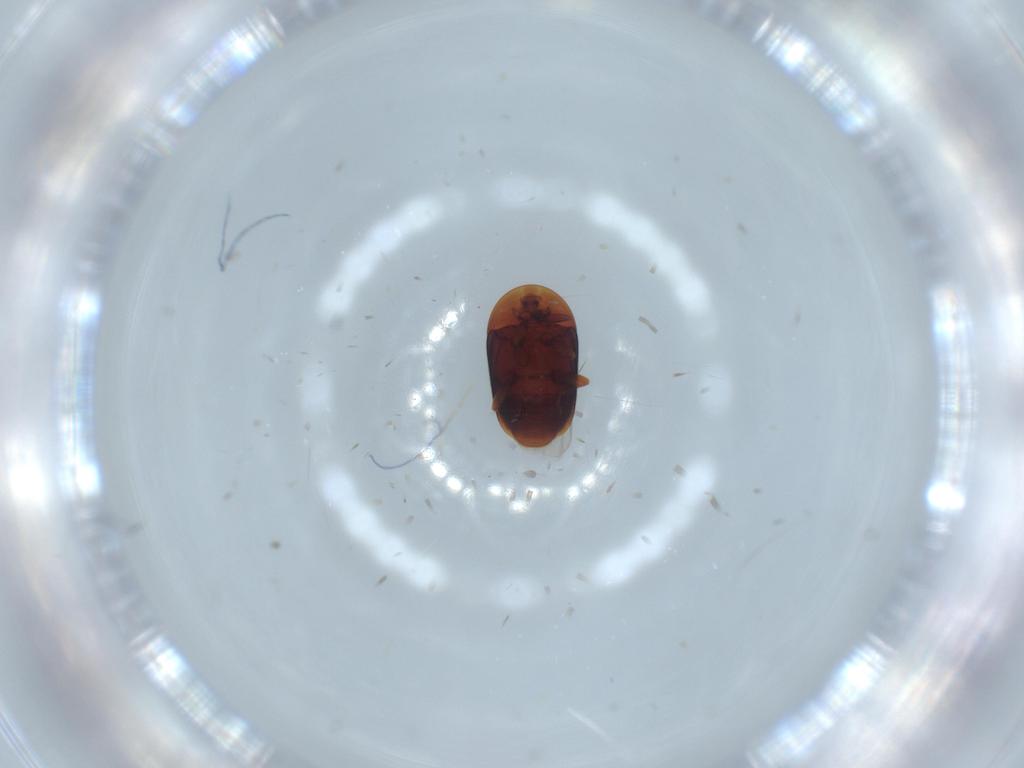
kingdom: Animalia
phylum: Arthropoda
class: Insecta
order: Coleoptera
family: Corylophidae
